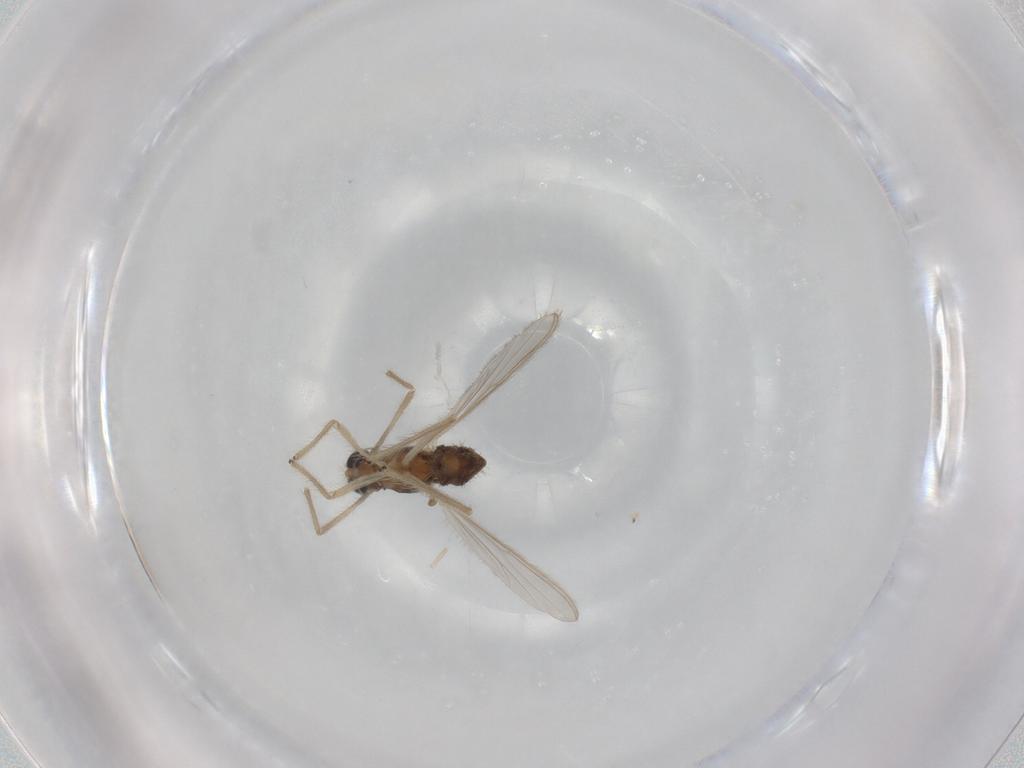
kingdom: Animalia
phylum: Arthropoda
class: Insecta
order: Diptera
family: Chironomidae
